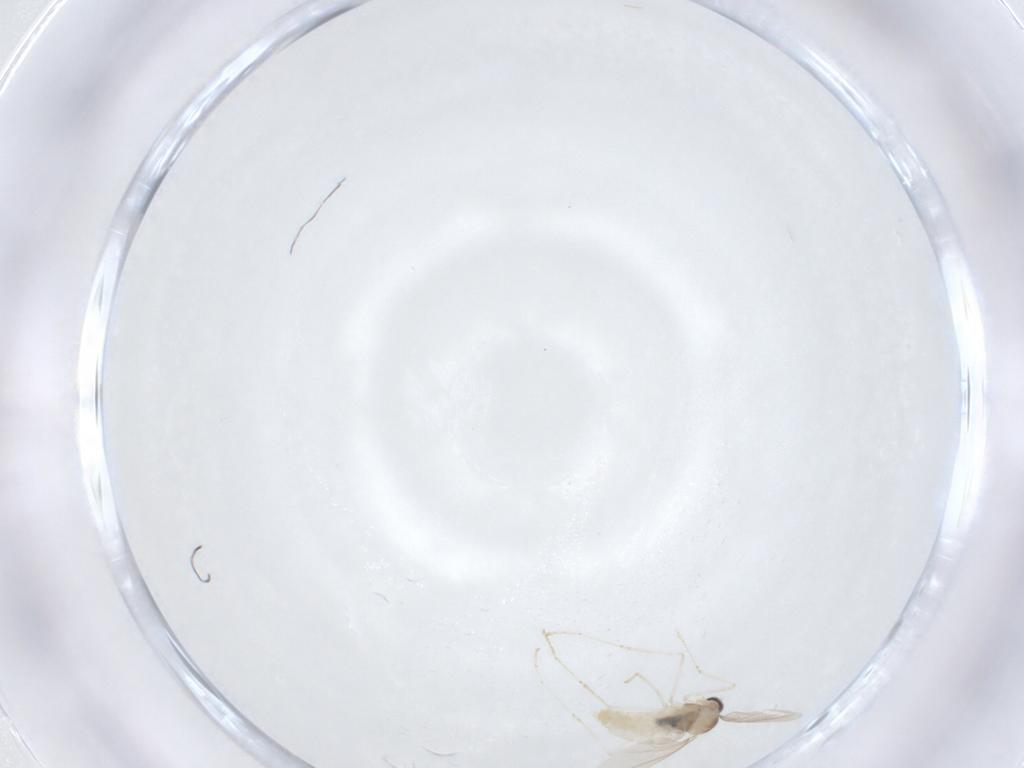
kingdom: Animalia
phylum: Arthropoda
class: Insecta
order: Diptera
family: Cecidomyiidae
